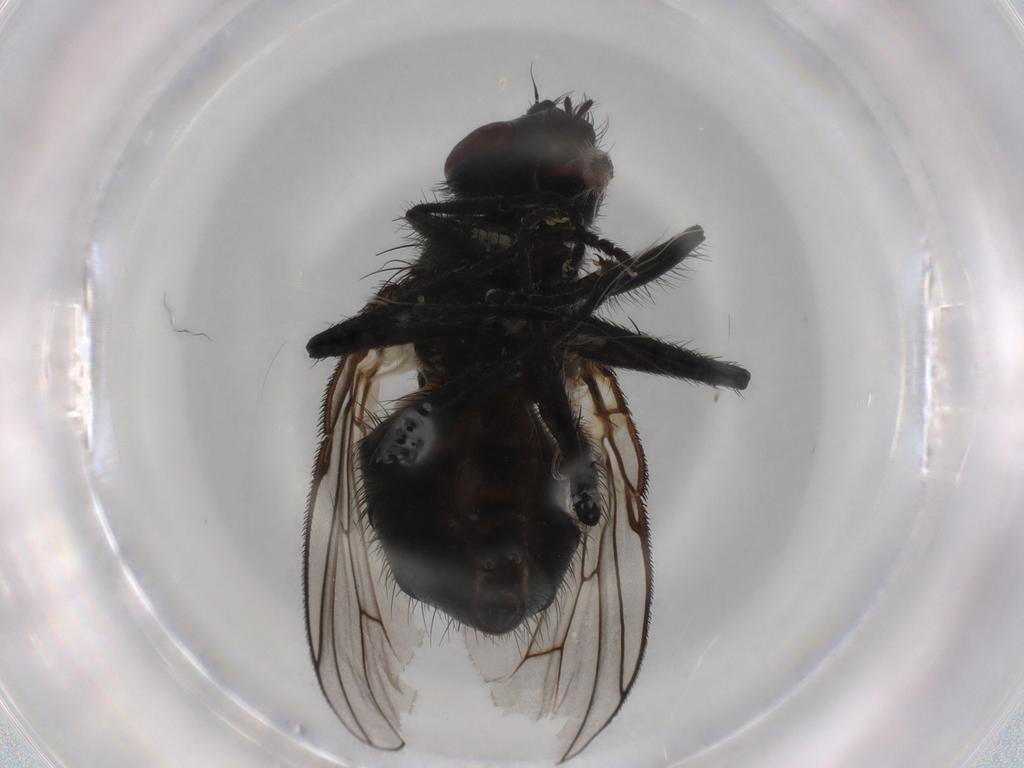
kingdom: Animalia
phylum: Arthropoda
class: Insecta
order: Diptera
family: Muscidae
